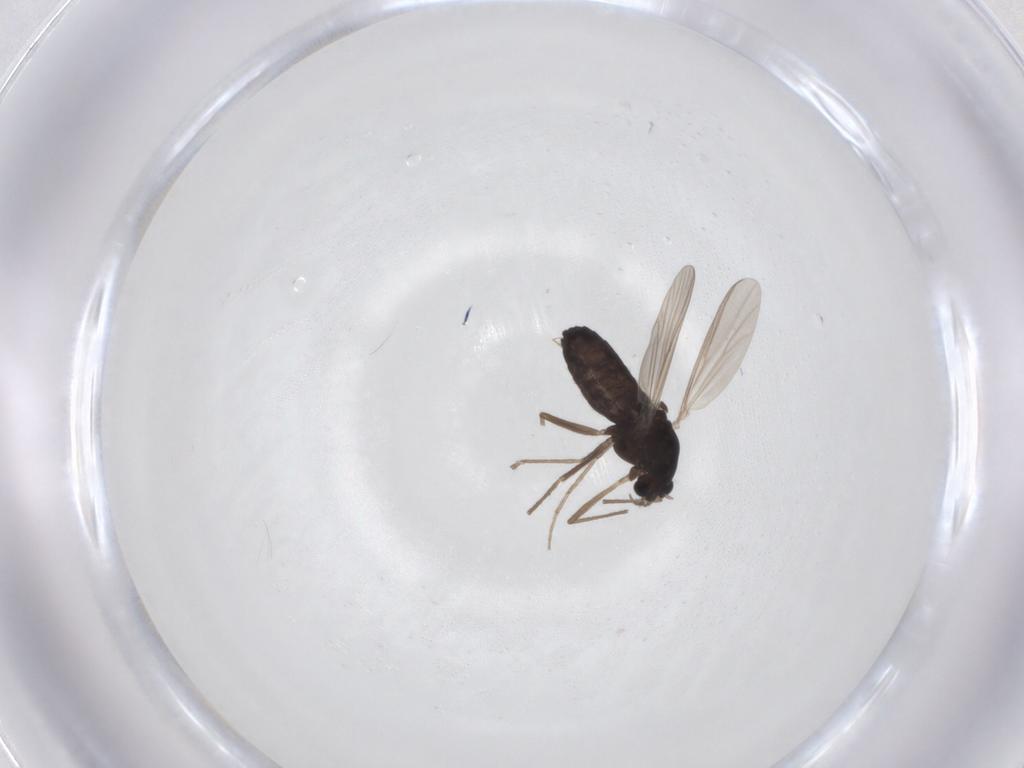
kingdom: Animalia
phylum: Arthropoda
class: Insecta
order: Diptera
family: Chironomidae
